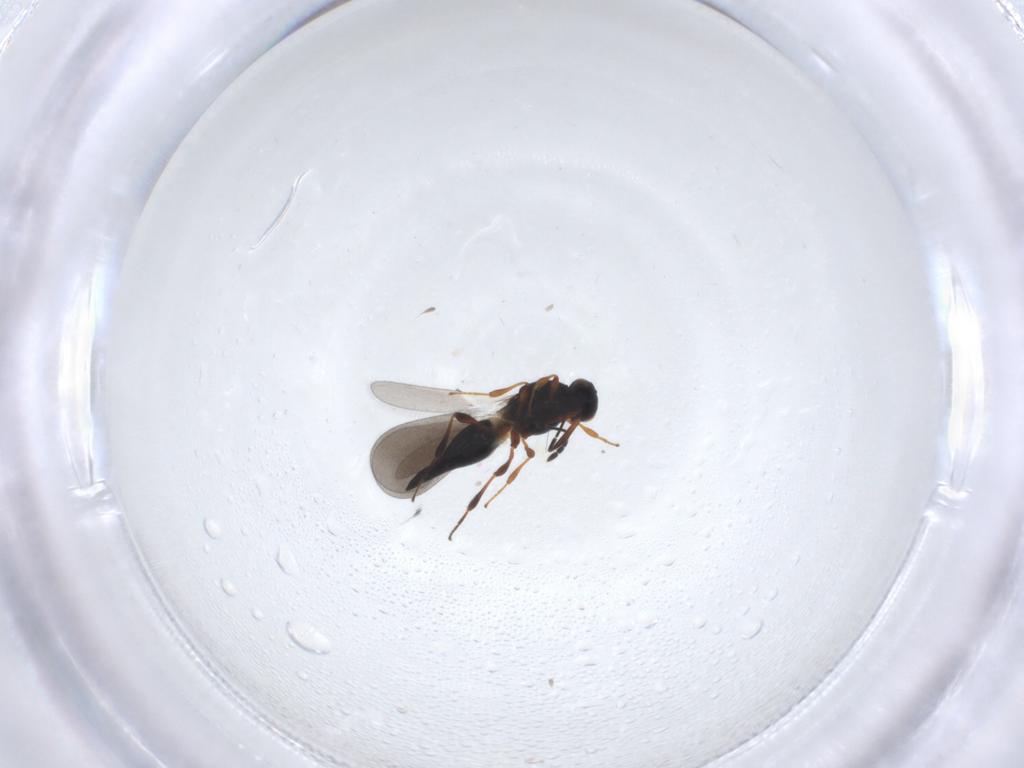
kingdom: Animalia
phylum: Arthropoda
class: Insecta
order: Hymenoptera
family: Platygastridae
